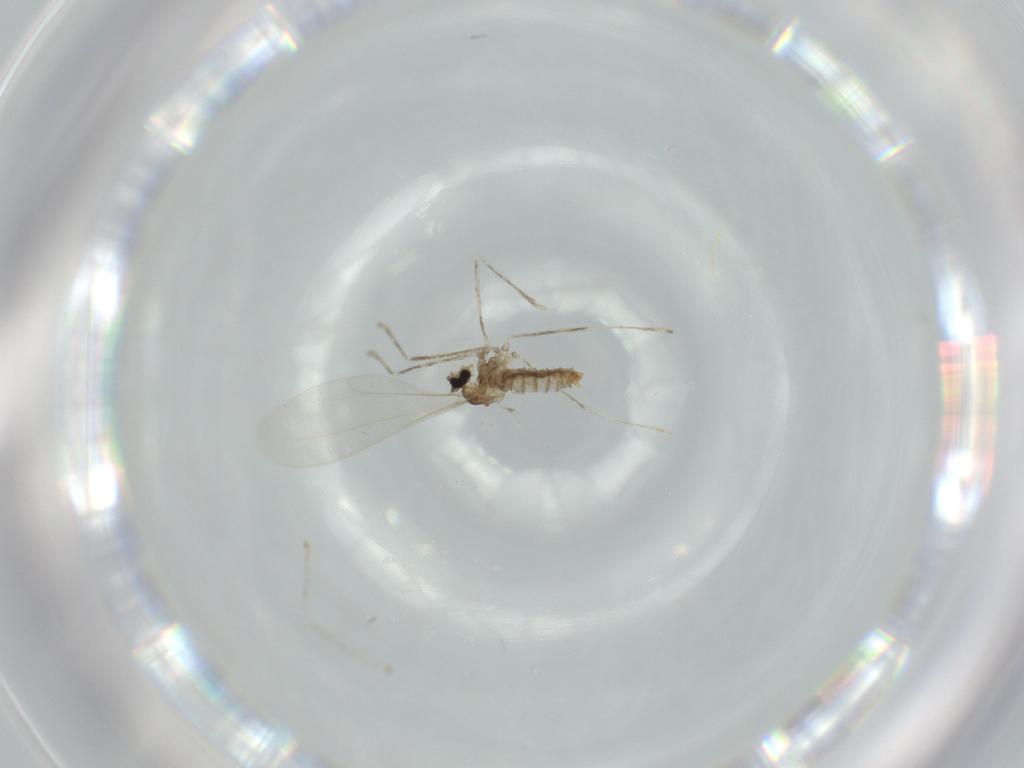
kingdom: Animalia
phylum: Arthropoda
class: Insecta
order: Diptera
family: Cecidomyiidae
